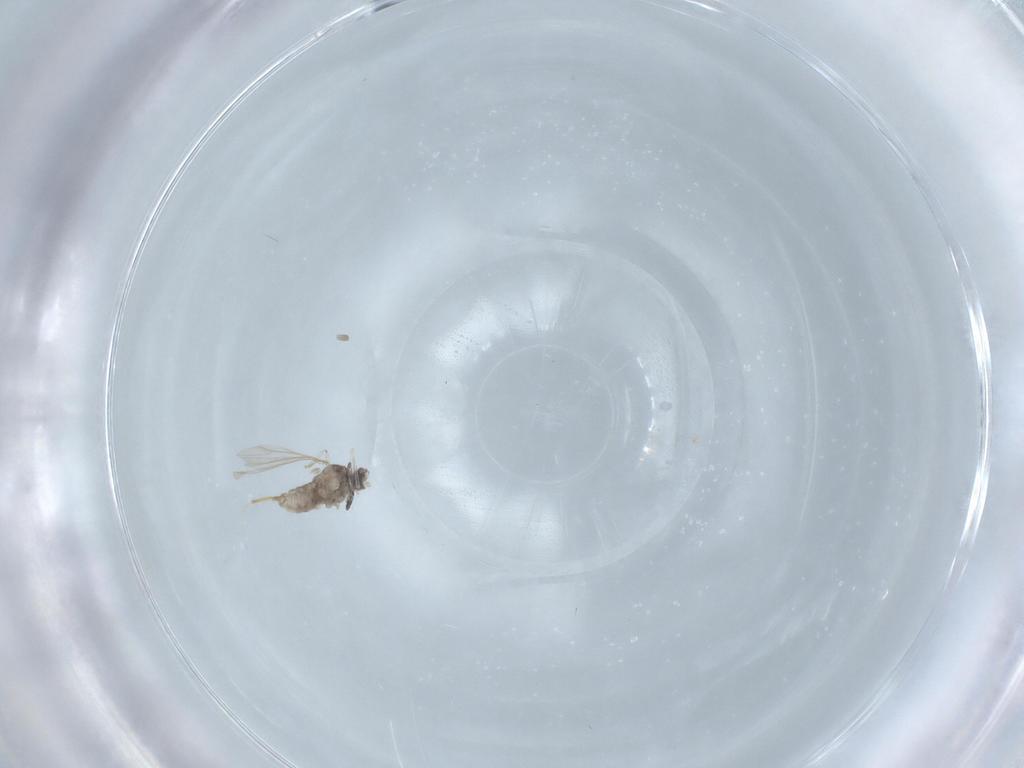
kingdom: Animalia
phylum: Arthropoda
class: Insecta
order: Diptera
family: Cecidomyiidae
